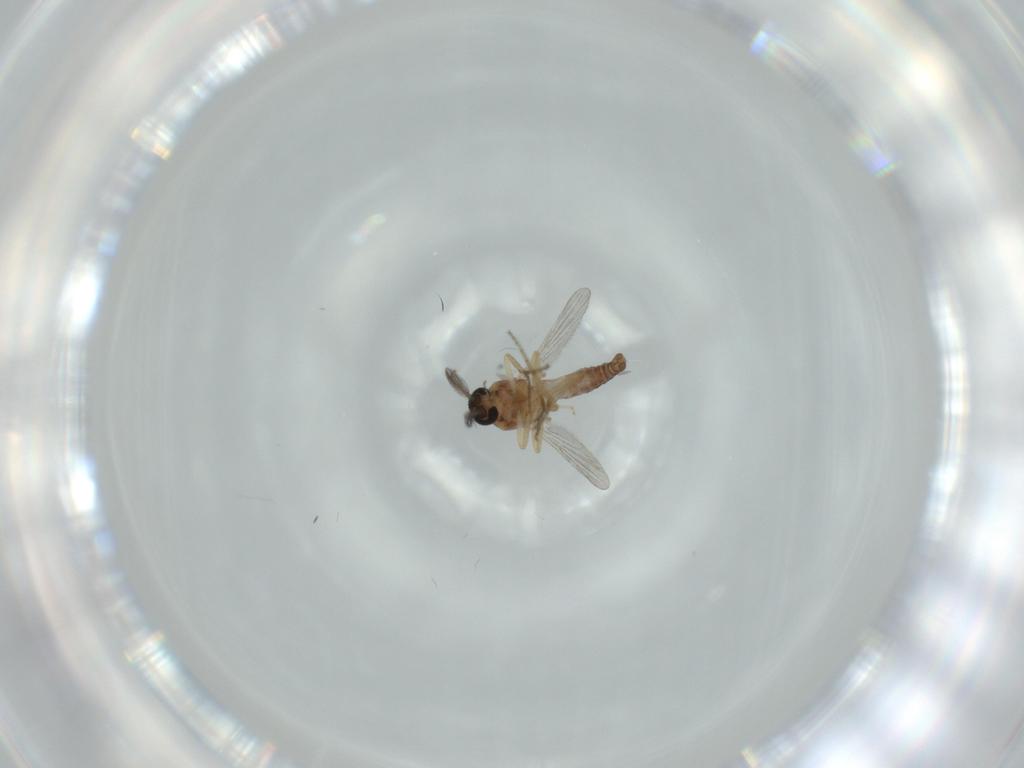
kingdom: Animalia
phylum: Arthropoda
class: Insecta
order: Diptera
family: Ceratopogonidae
